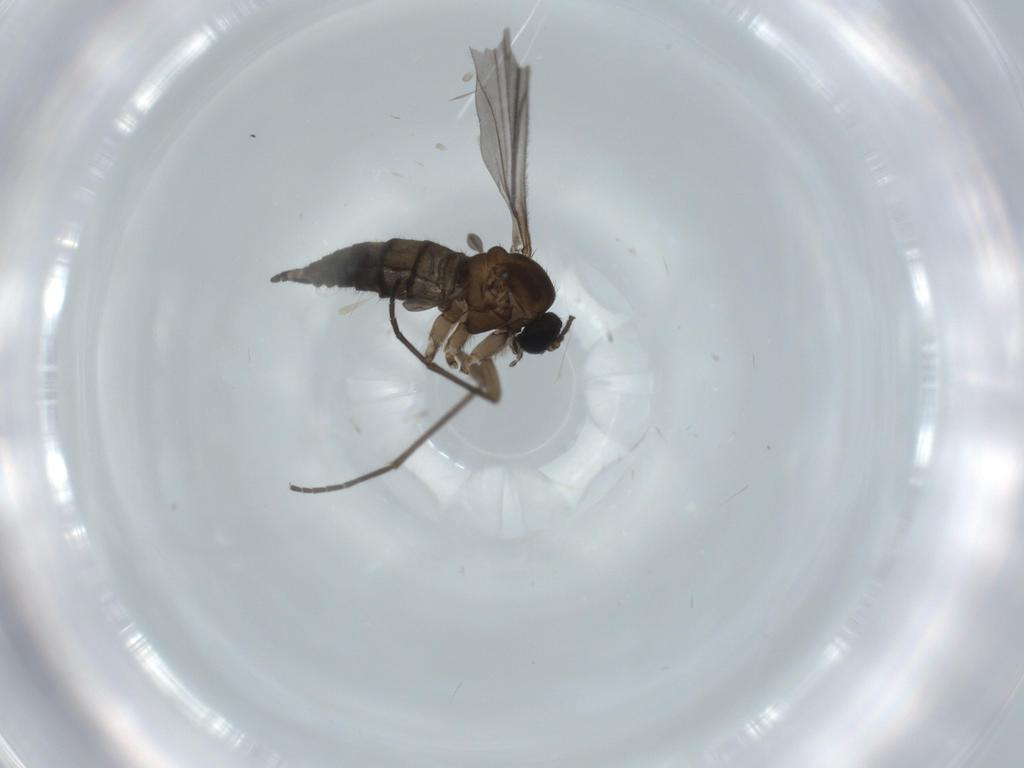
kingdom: Animalia
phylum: Arthropoda
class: Insecta
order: Diptera
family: Sciaridae
